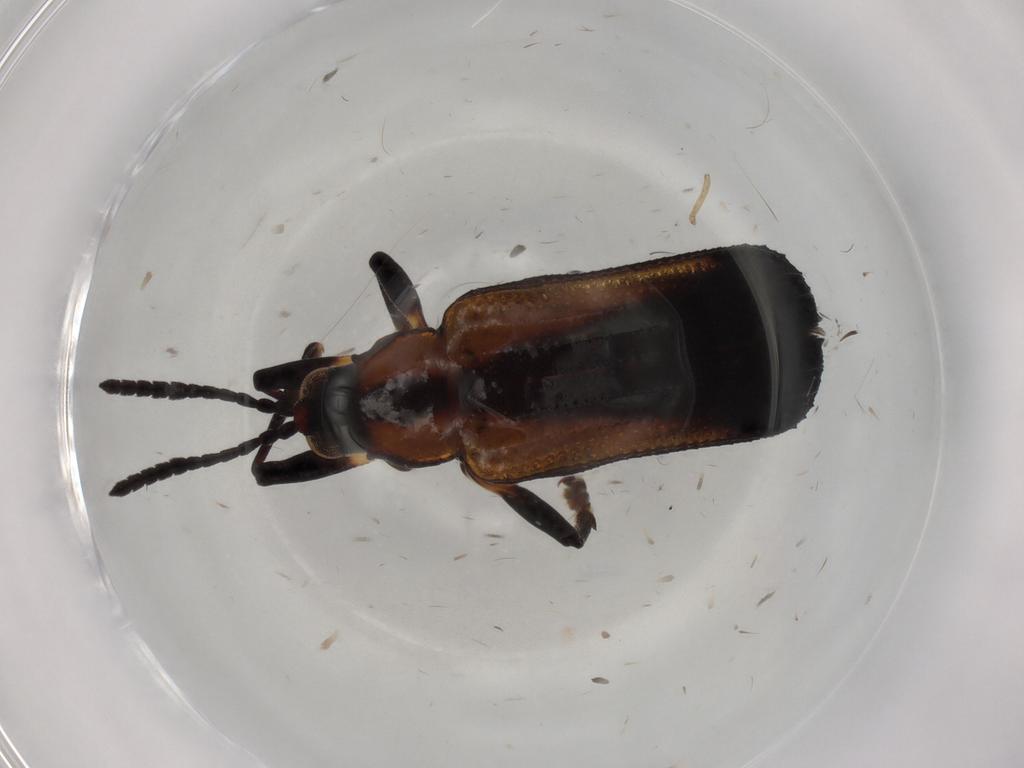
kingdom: Animalia
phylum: Arthropoda
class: Insecta
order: Coleoptera
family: Chrysomelidae
